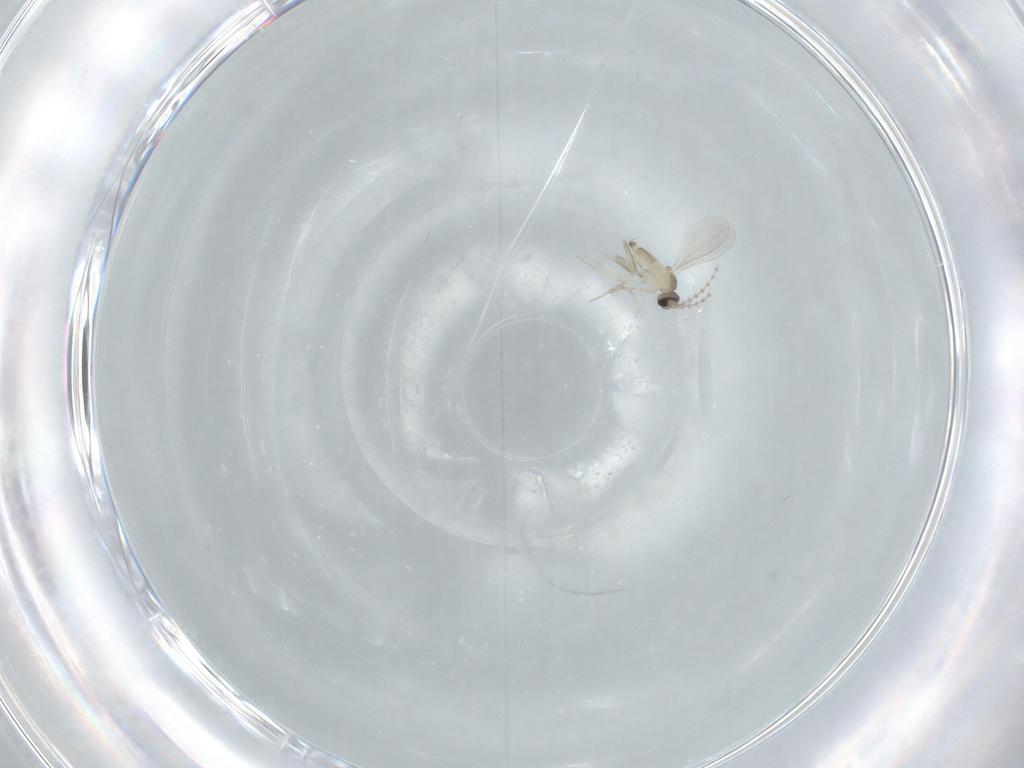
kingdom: Animalia
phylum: Arthropoda
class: Insecta
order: Diptera
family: Cecidomyiidae
